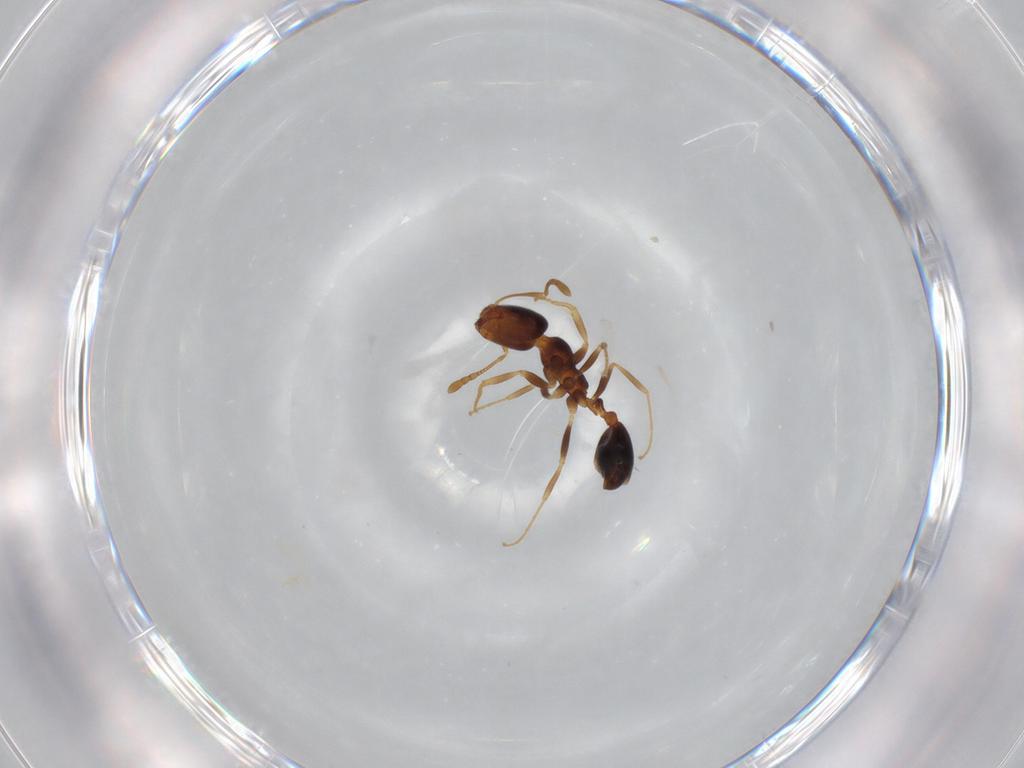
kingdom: Animalia
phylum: Arthropoda
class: Insecta
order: Hymenoptera
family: Formicidae
